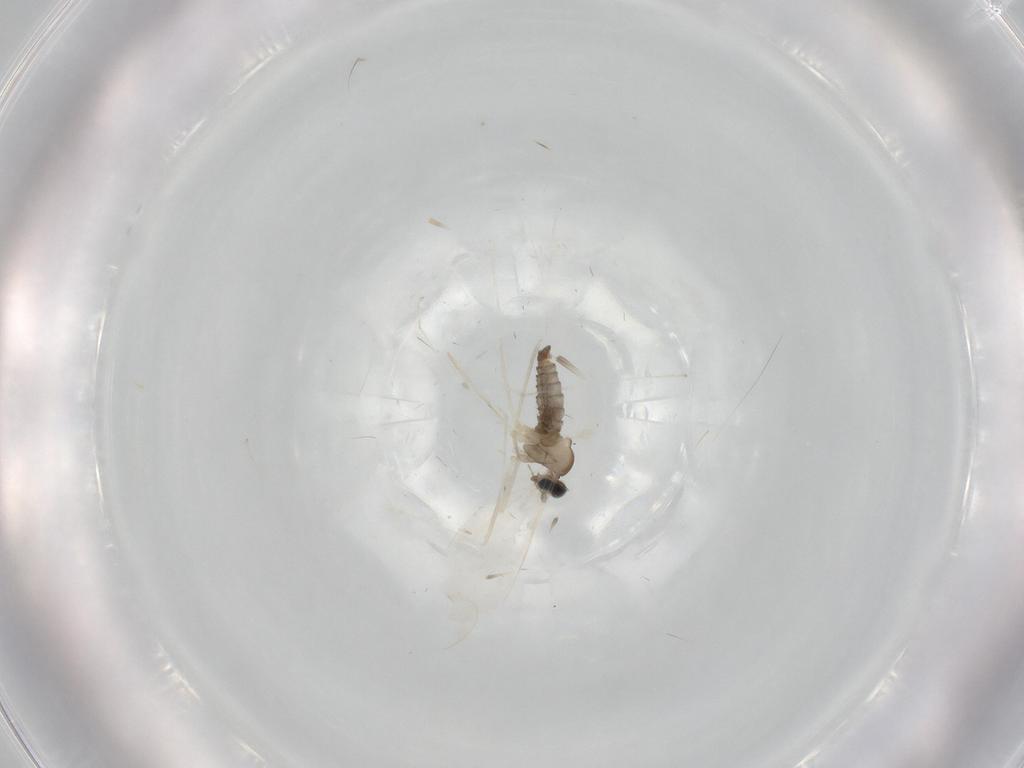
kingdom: Animalia
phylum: Arthropoda
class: Insecta
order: Diptera
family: Cecidomyiidae
